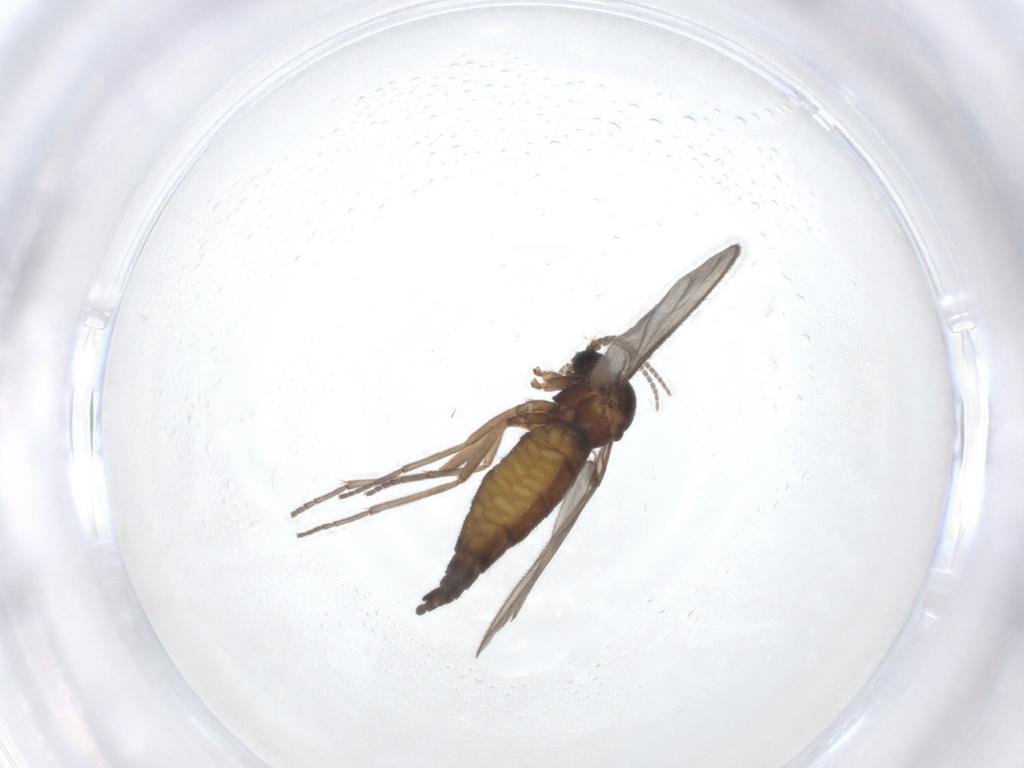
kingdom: Animalia
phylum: Arthropoda
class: Insecta
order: Diptera
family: Sciaridae
